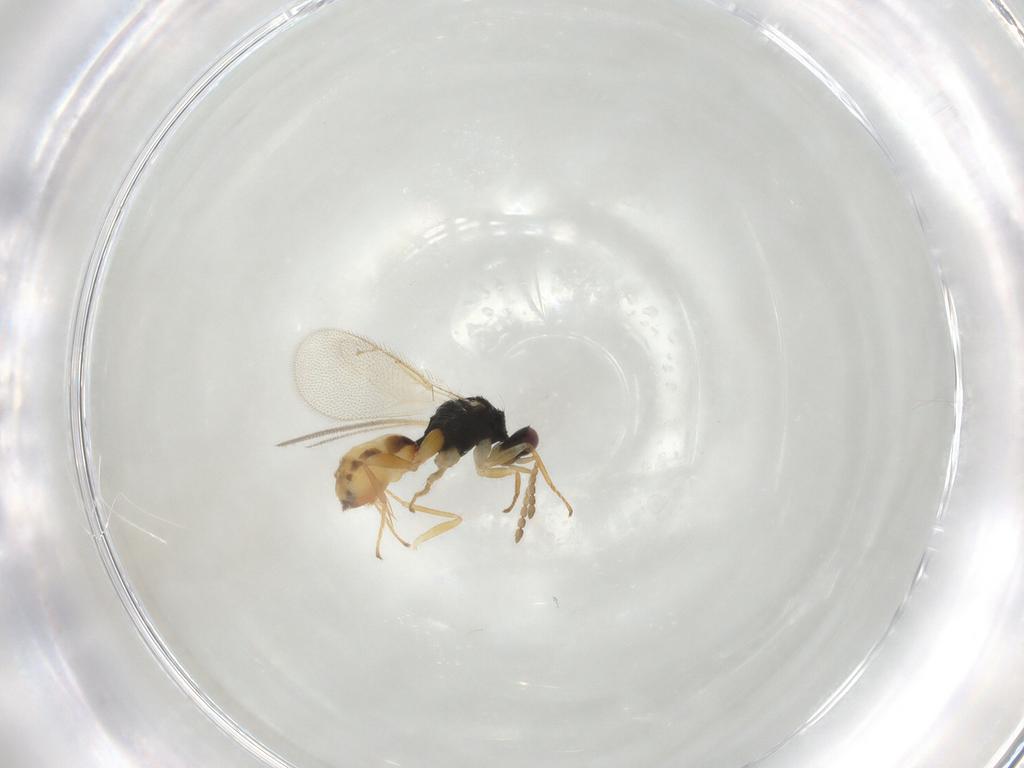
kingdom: Animalia
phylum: Arthropoda
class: Insecta
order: Hymenoptera
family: Eulophidae
